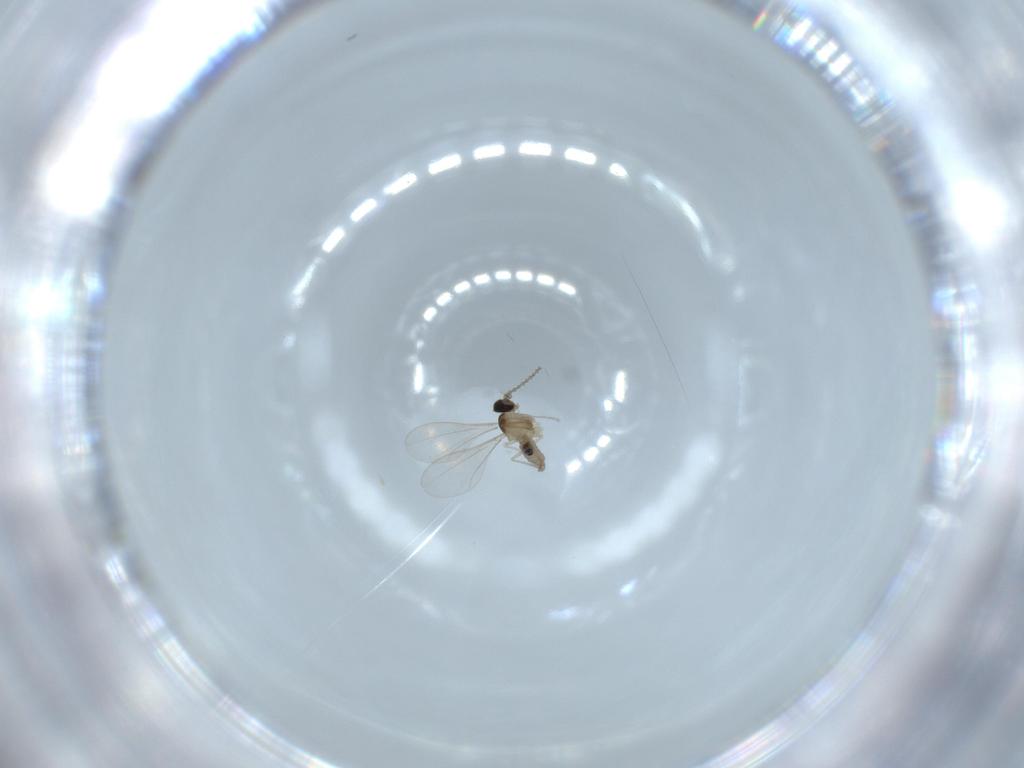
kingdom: Animalia
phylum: Arthropoda
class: Insecta
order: Diptera
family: Cecidomyiidae
